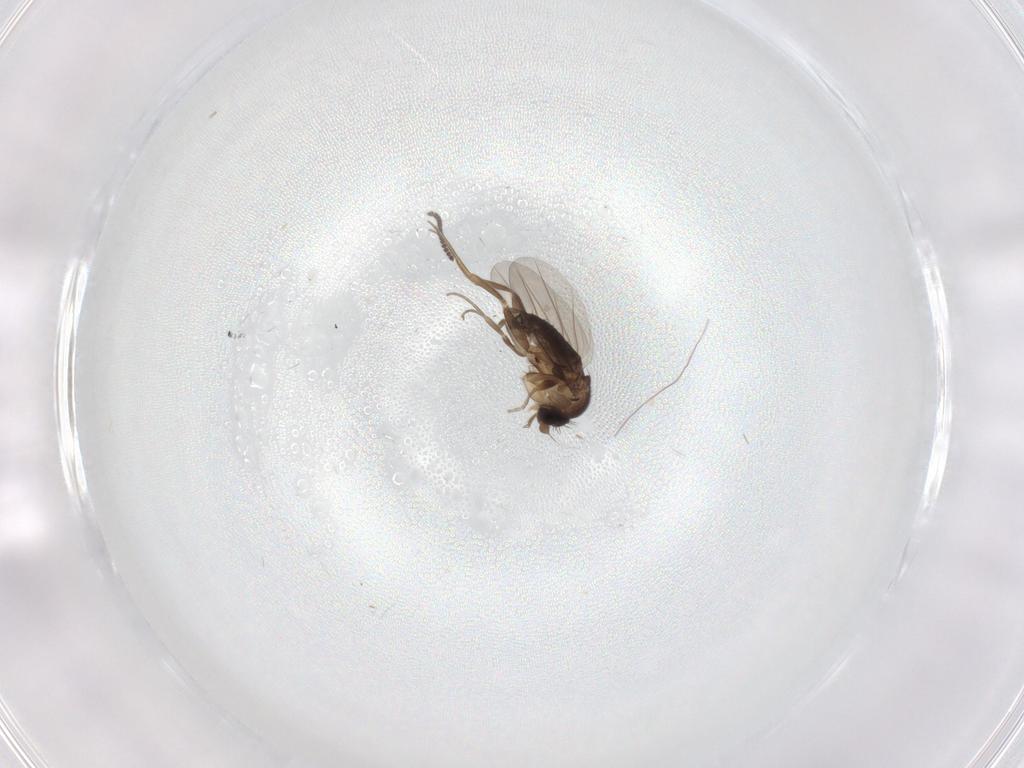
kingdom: Animalia
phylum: Arthropoda
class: Insecta
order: Diptera
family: Phoridae
